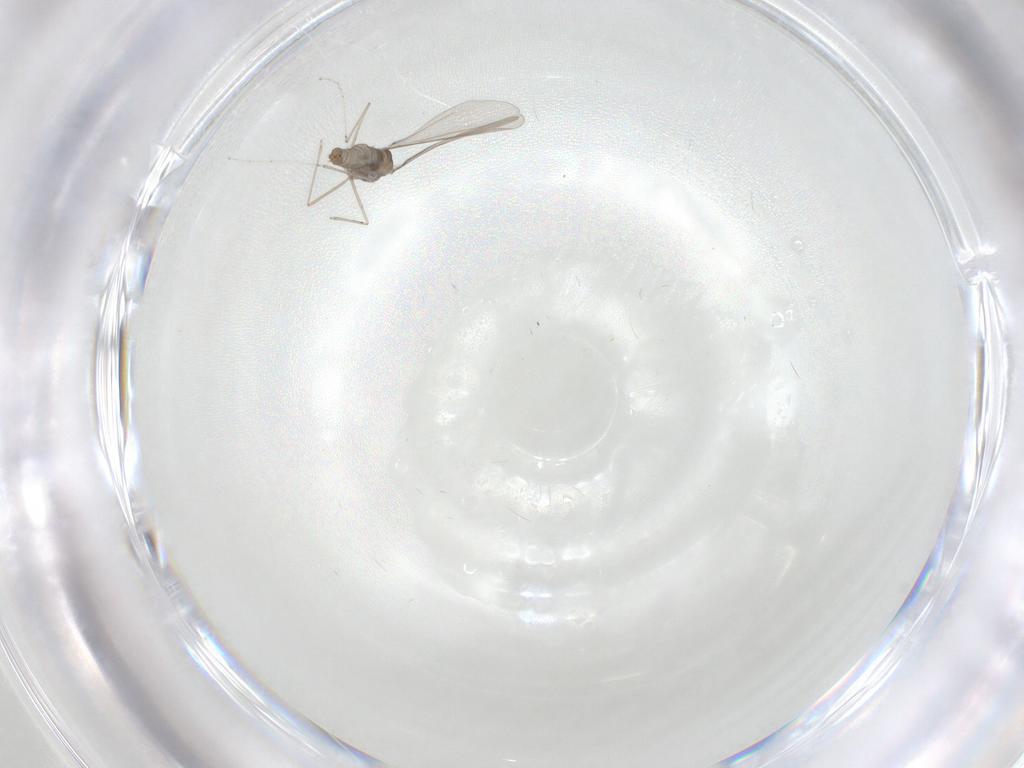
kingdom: Animalia
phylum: Arthropoda
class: Insecta
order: Diptera
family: Cecidomyiidae
